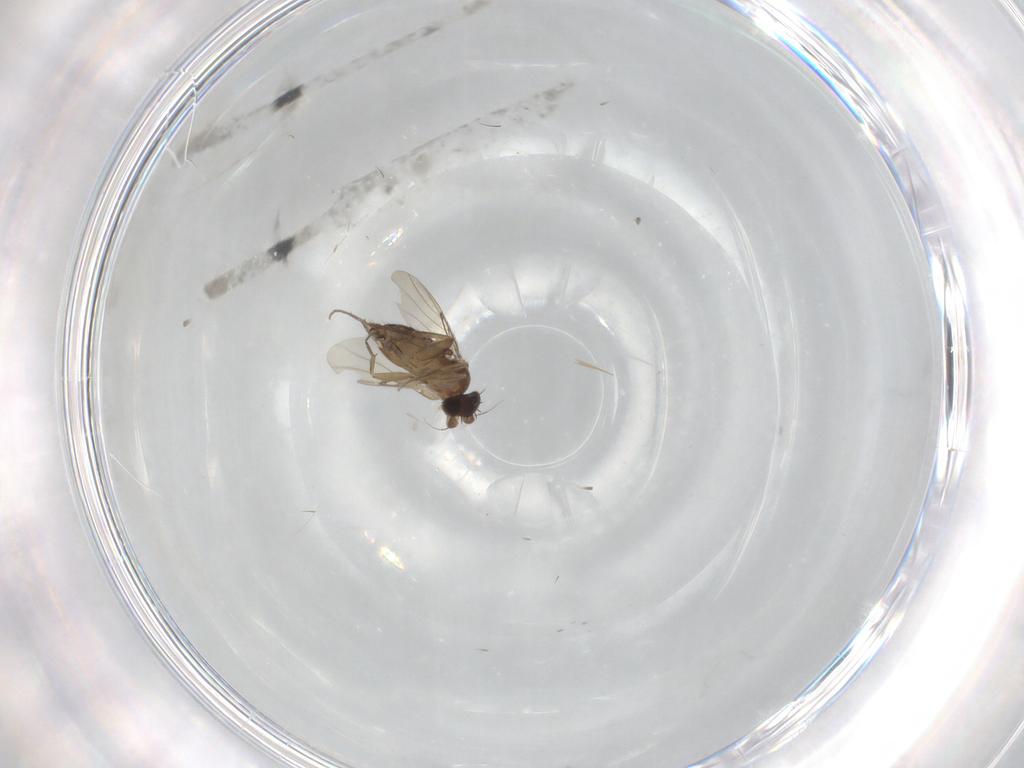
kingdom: Animalia
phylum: Arthropoda
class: Insecta
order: Diptera
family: Phoridae
